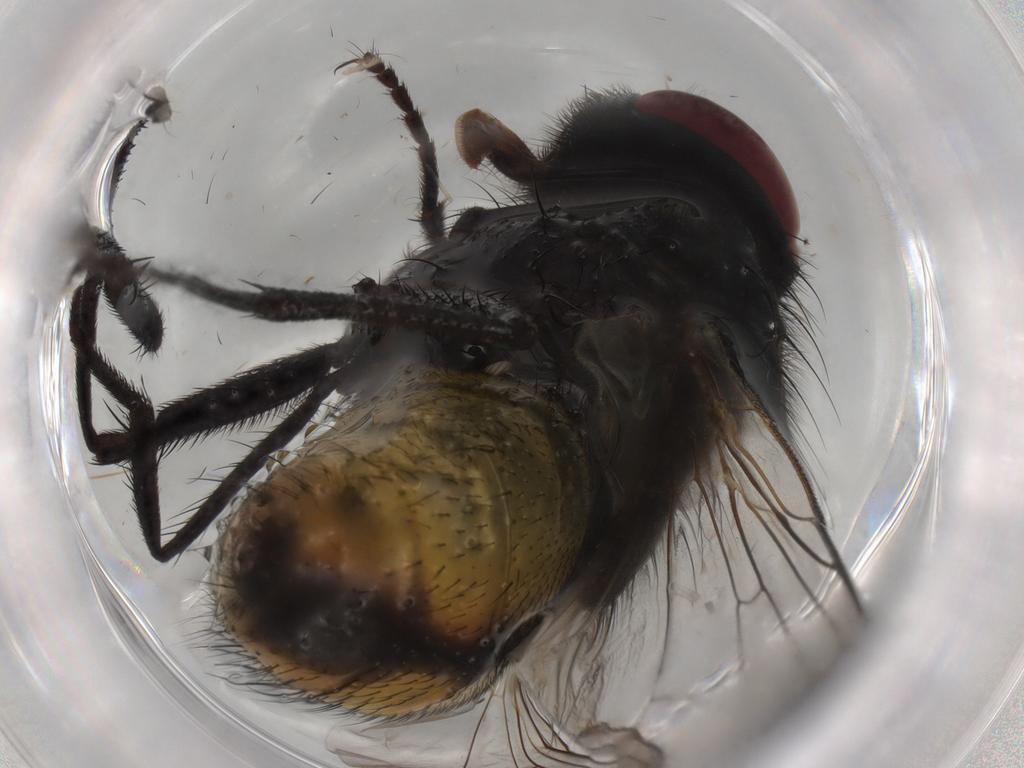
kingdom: Animalia
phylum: Arthropoda
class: Insecta
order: Diptera
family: Muscidae
